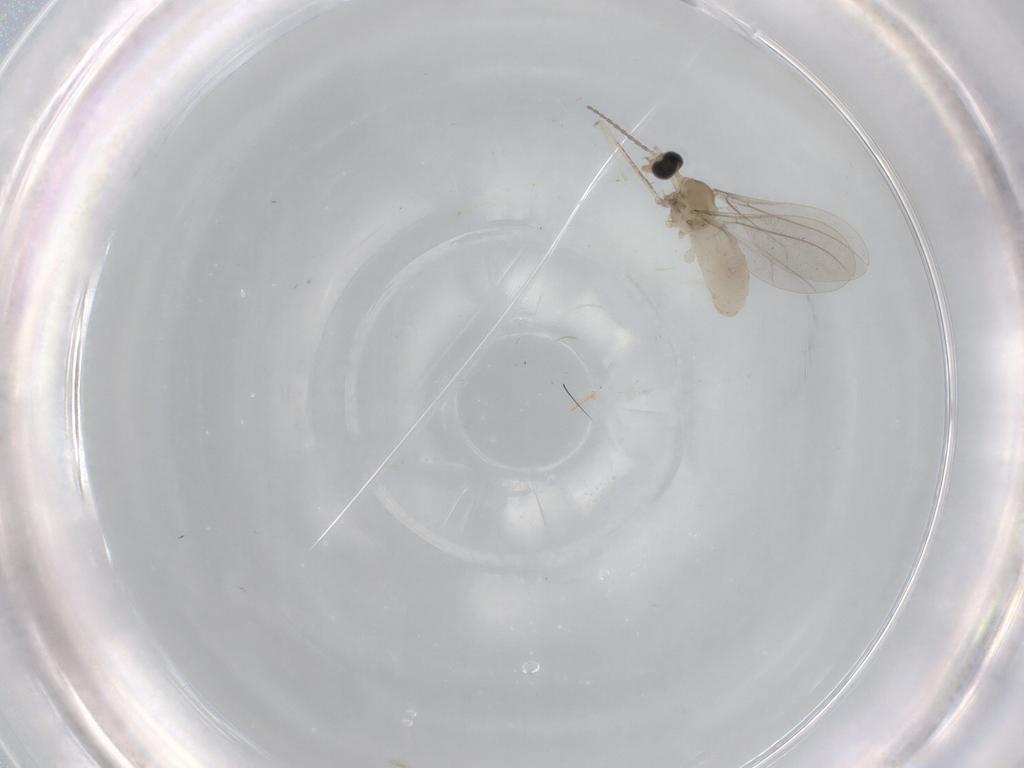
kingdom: Animalia
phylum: Arthropoda
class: Insecta
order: Diptera
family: Cecidomyiidae
